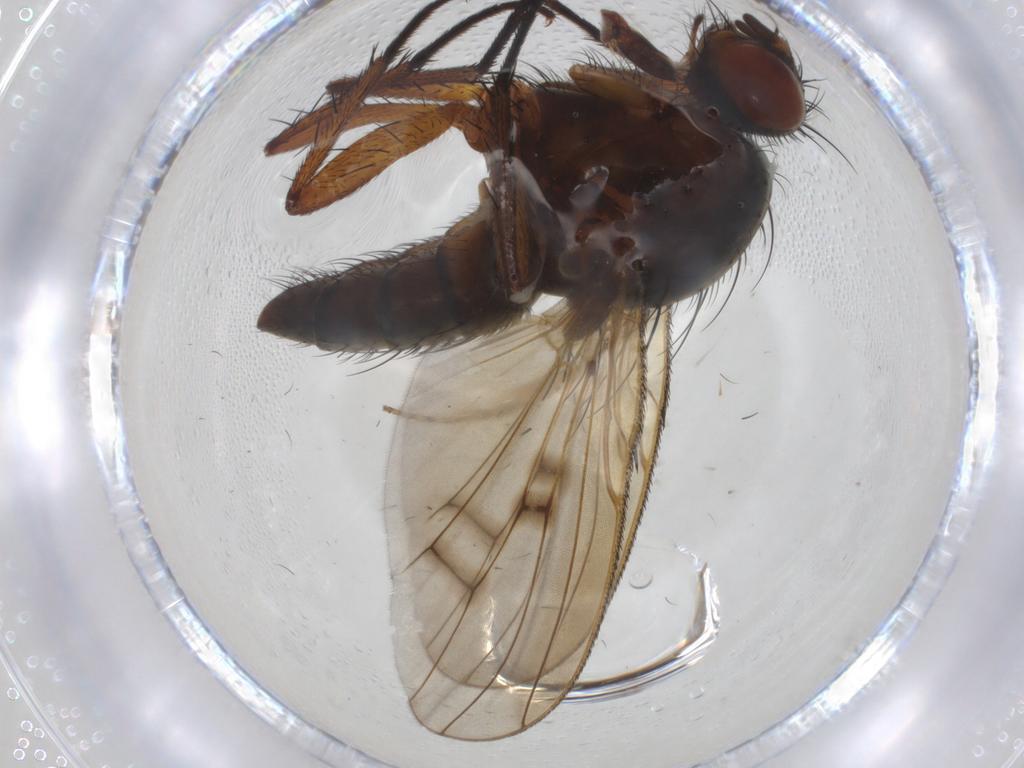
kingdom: Animalia
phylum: Arthropoda
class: Insecta
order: Diptera
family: Anthomyiidae
